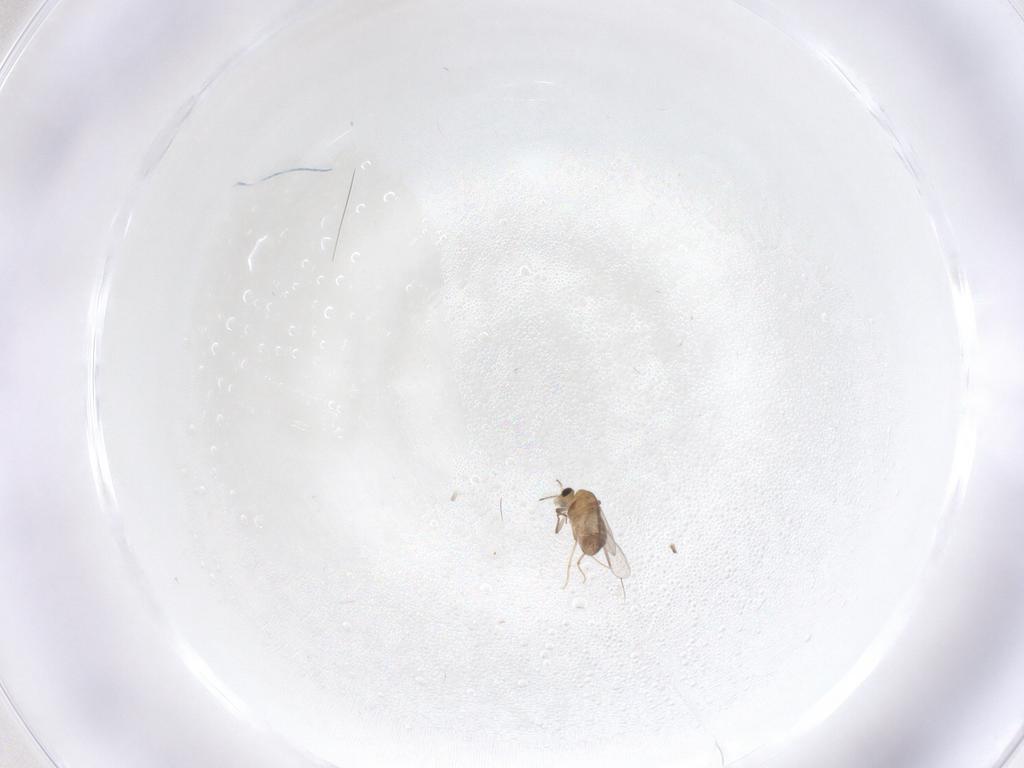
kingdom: Animalia
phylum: Arthropoda
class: Insecta
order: Diptera
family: Chironomidae
